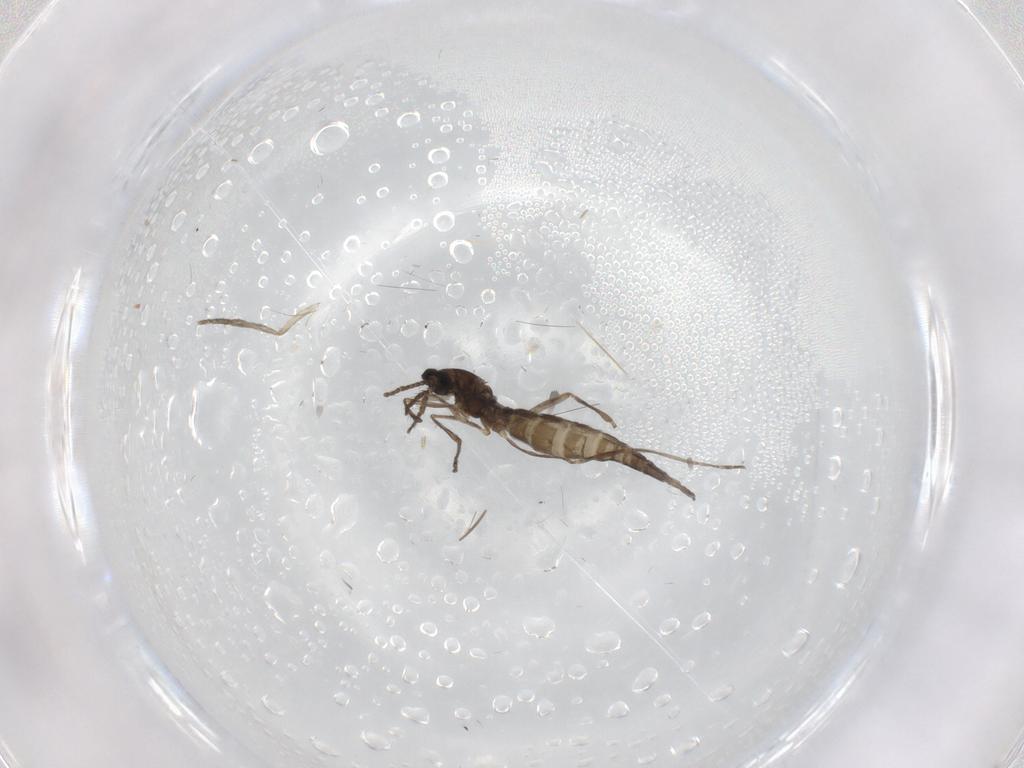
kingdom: Animalia
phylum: Arthropoda
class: Insecta
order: Diptera
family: Cecidomyiidae
